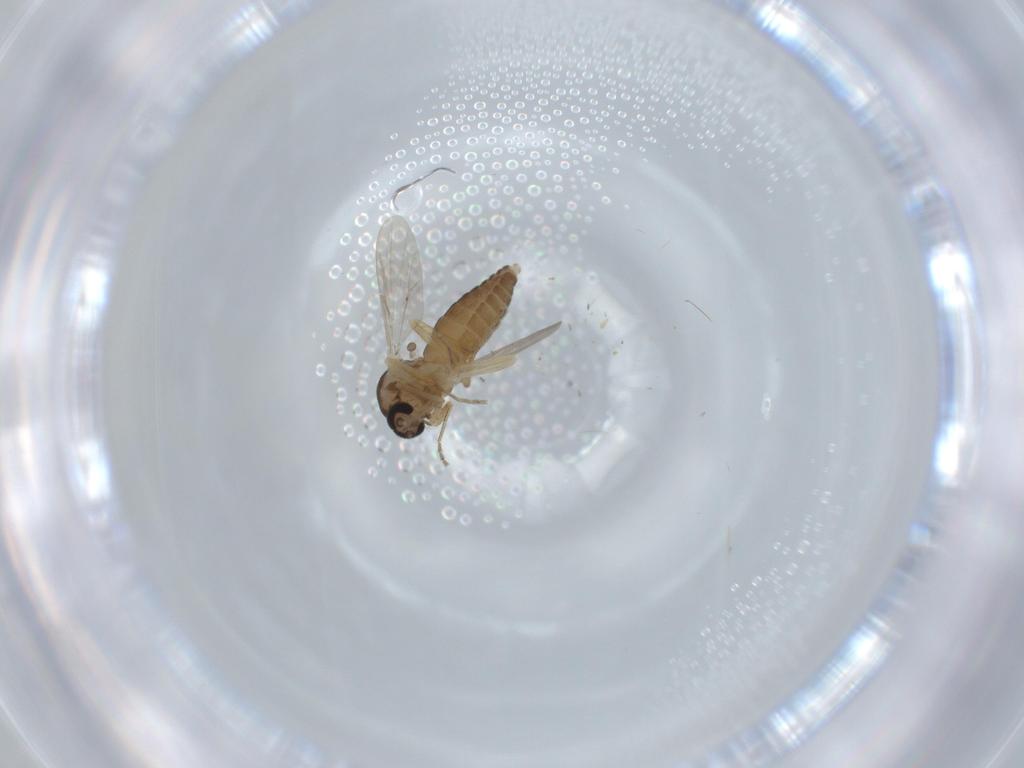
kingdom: Animalia
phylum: Arthropoda
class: Insecta
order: Diptera
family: Ceratopogonidae
